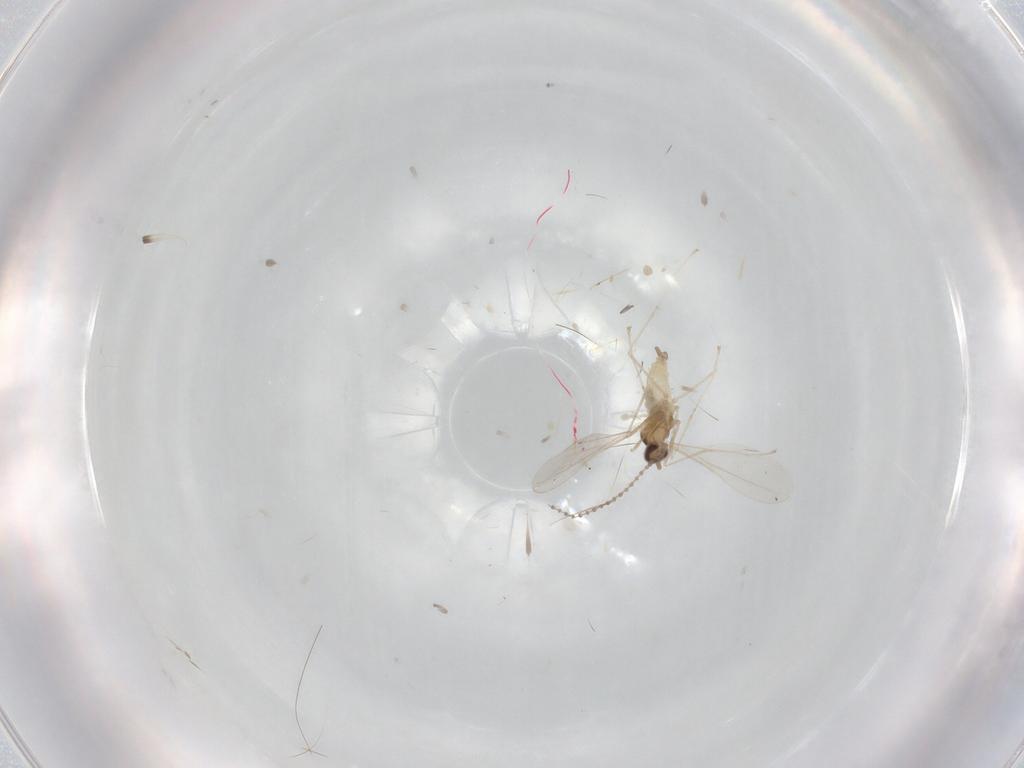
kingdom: Animalia
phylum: Arthropoda
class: Insecta
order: Diptera
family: Cecidomyiidae
